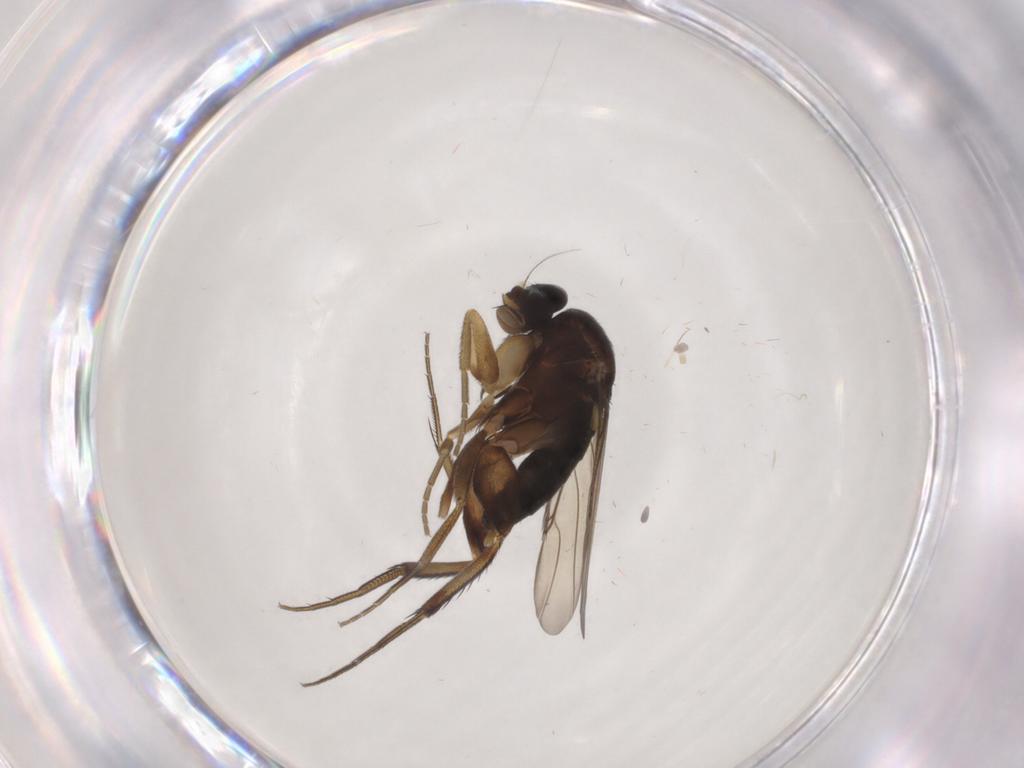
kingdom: Animalia
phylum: Arthropoda
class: Insecta
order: Diptera
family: Phoridae
